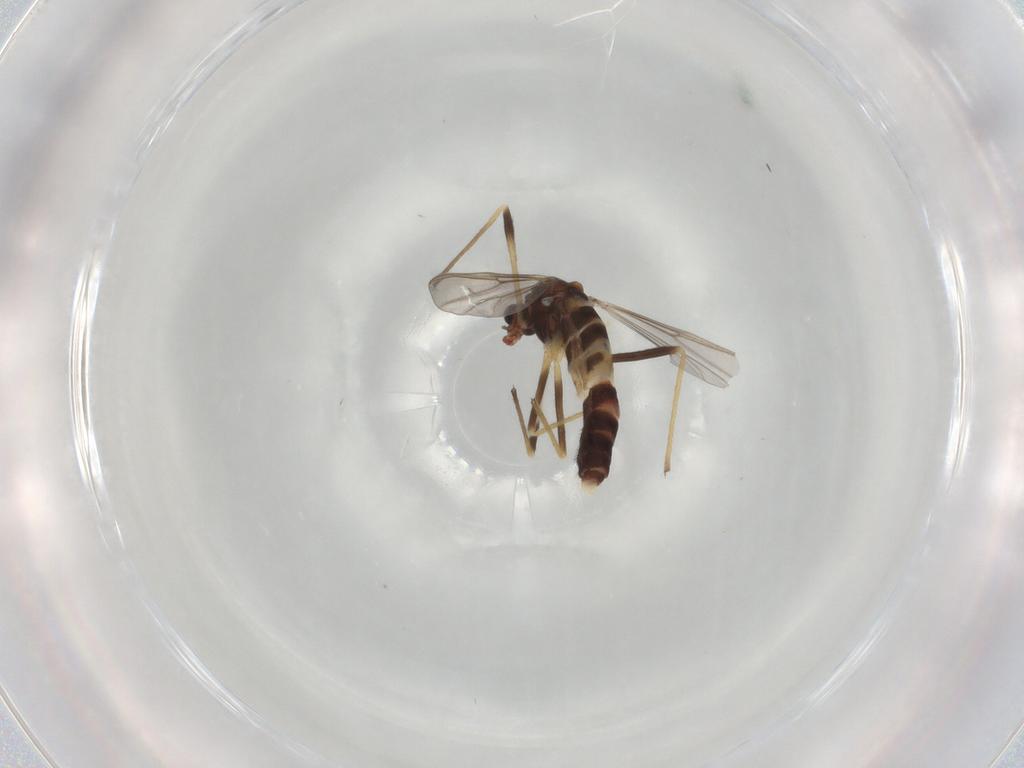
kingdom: Animalia
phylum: Arthropoda
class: Insecta
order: Diptera
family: Chironomidae
